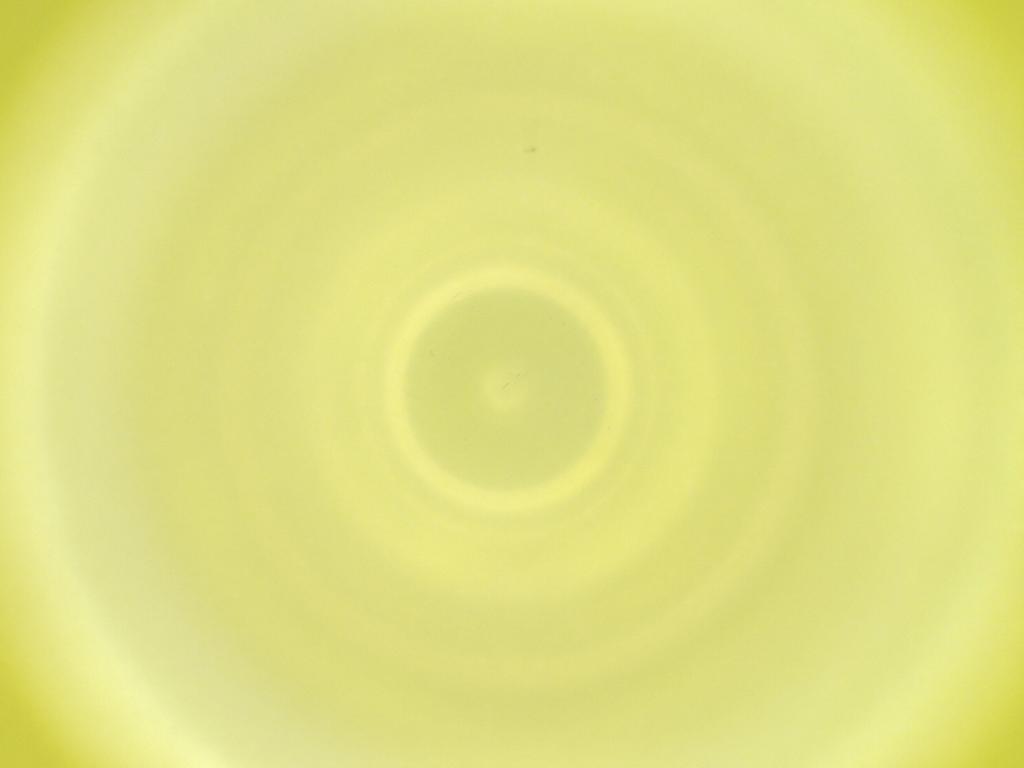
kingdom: Animalia
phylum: Arthropoda
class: Insecta
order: Diptera
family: Cecidomyiidae
